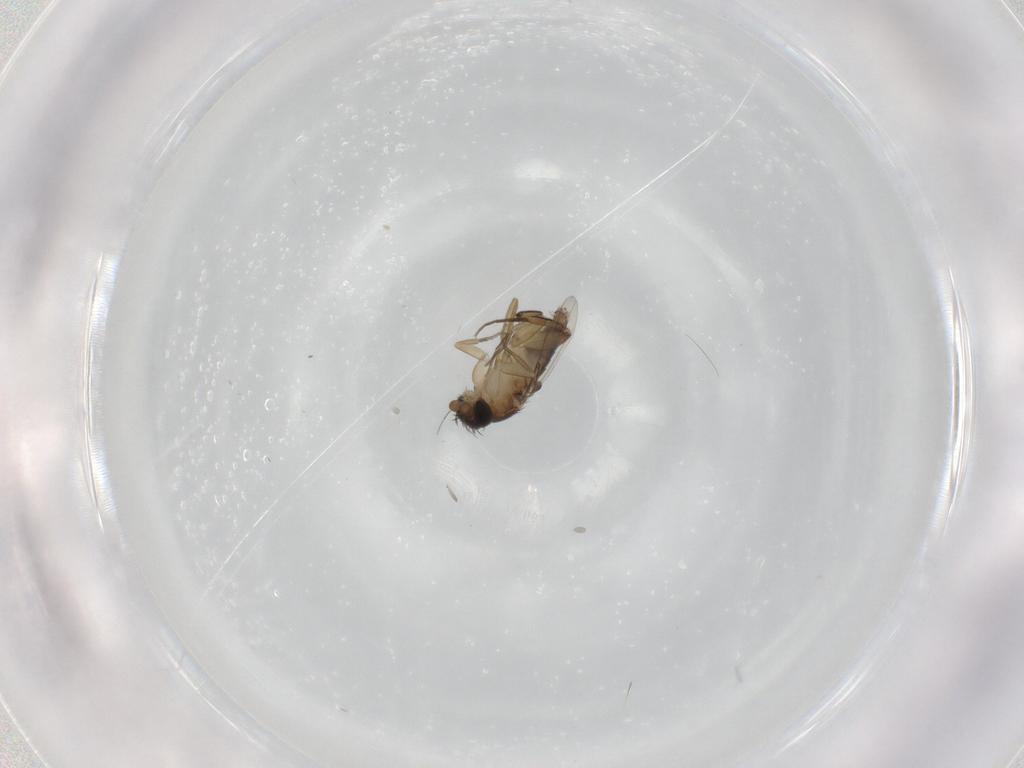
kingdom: Animalia
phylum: Arthropoda
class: Insecta
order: Diptera
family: Phoridae
